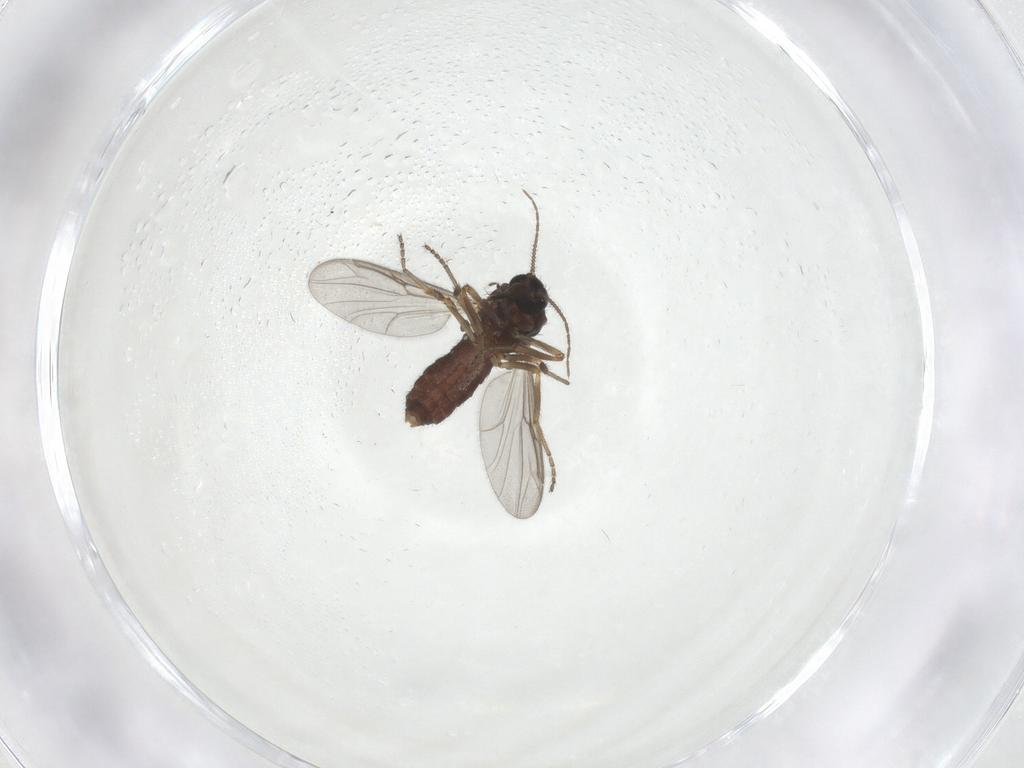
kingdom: Animalia
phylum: Arthropoda
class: Insecta
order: Diptera
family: Ceratopogonidae
